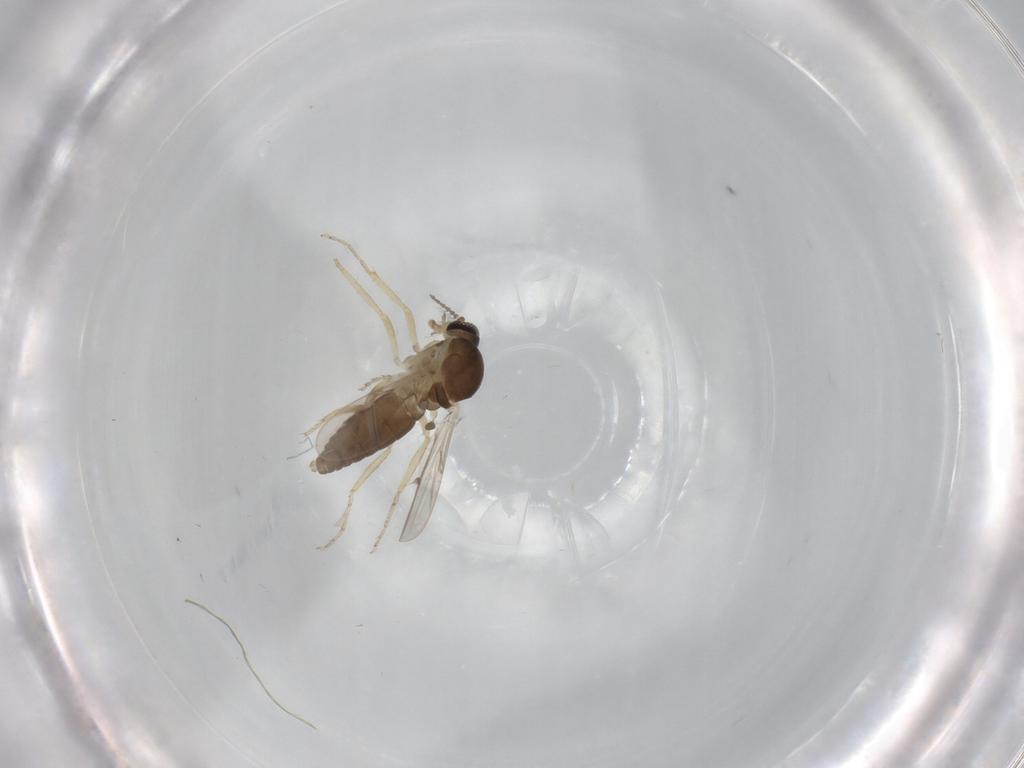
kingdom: Animalia
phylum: Arthropoda
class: Insecta
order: Diptera
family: Ceratopogonidae
